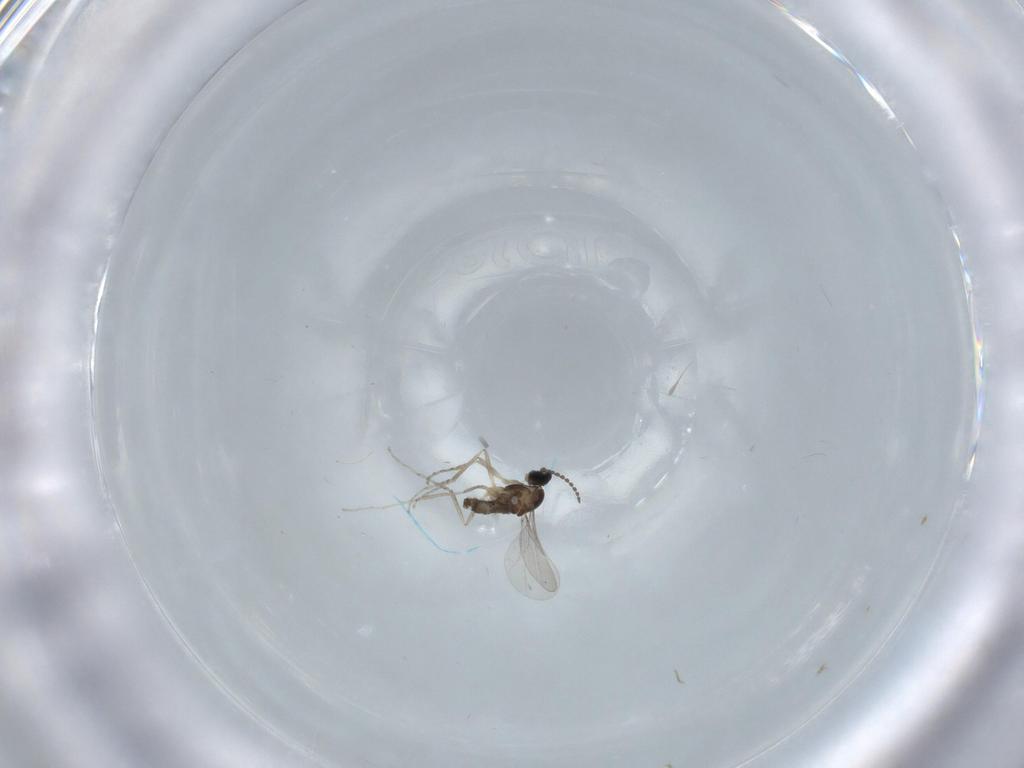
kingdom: Animalia
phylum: Arthropoda
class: Insecta
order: Diptera
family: Cecidomyiidae
